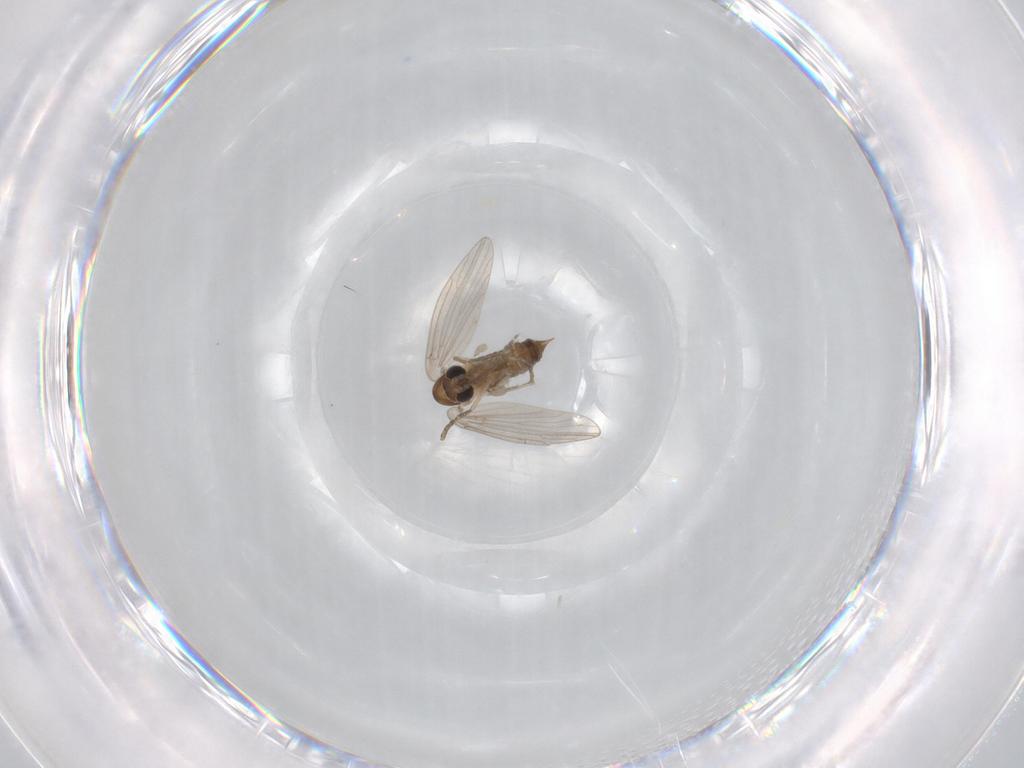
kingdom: Animalia
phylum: Arthropoda
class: Insecta
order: Diptera
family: Psychodidae
